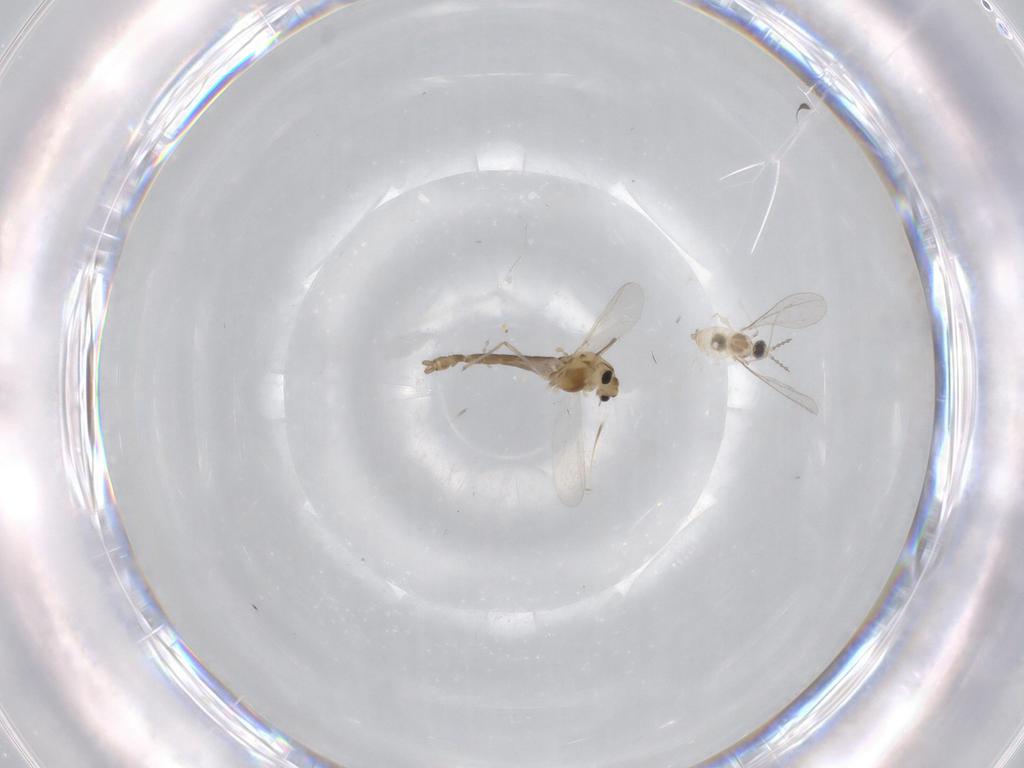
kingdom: Animalia
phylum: Arthropoda
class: Insecta
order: Diptera
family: Chironomidae
